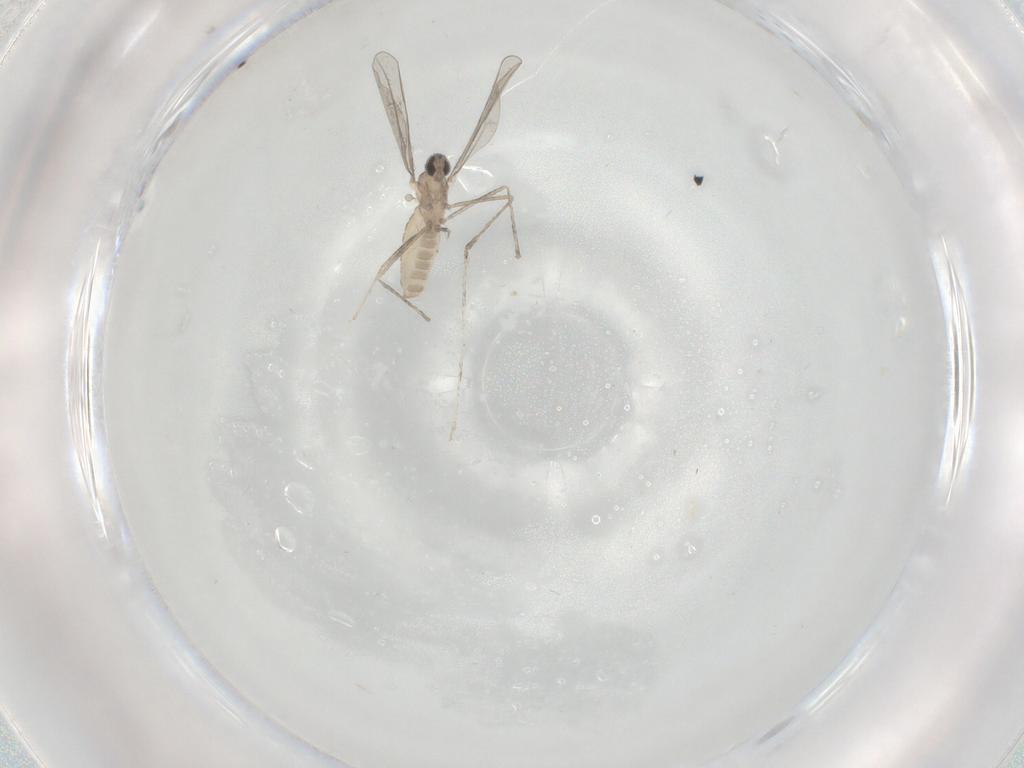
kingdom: Animalia
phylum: Arthropoda
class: Insecta
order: Diptera
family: Cecidomyiidae
